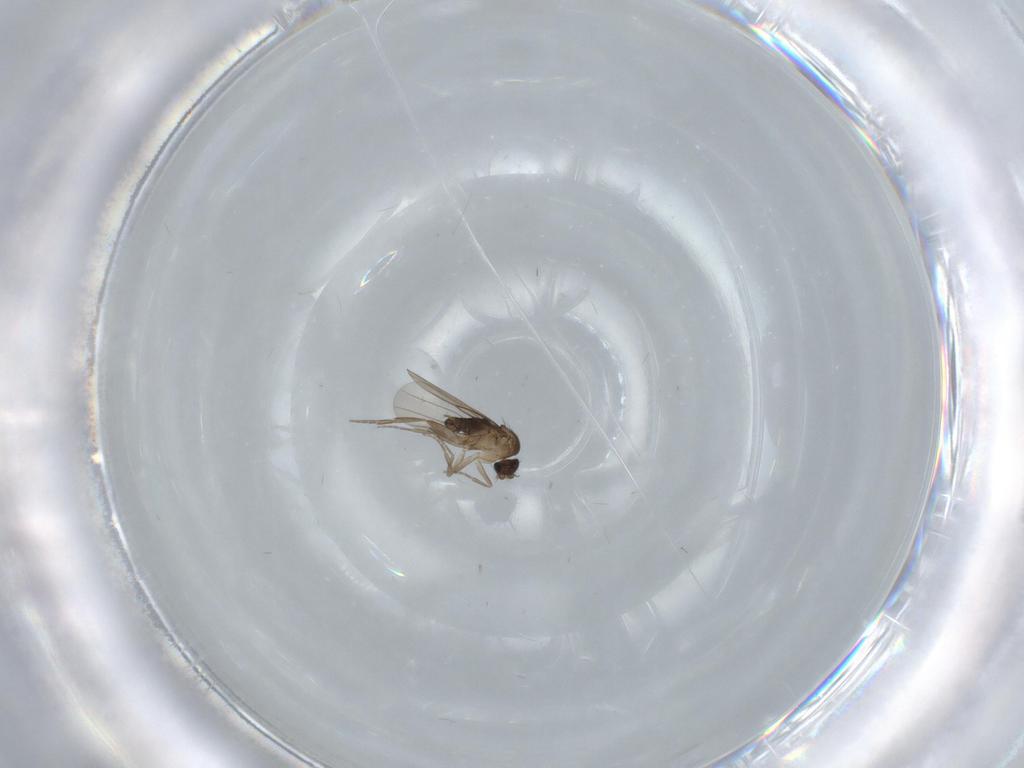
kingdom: Animalia
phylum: Arthropoda
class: Insecta
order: Diptera
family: Phoridae
